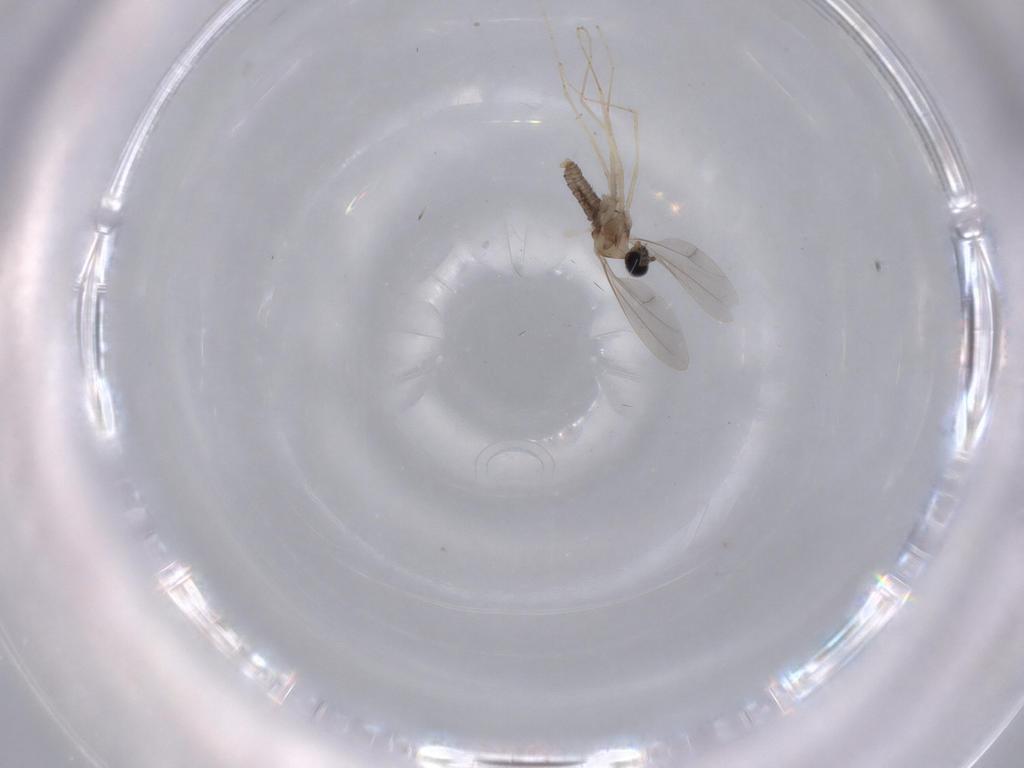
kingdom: Animalia
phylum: Arthropoda
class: Insecta
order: Diptera
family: Cecidomyiidae
